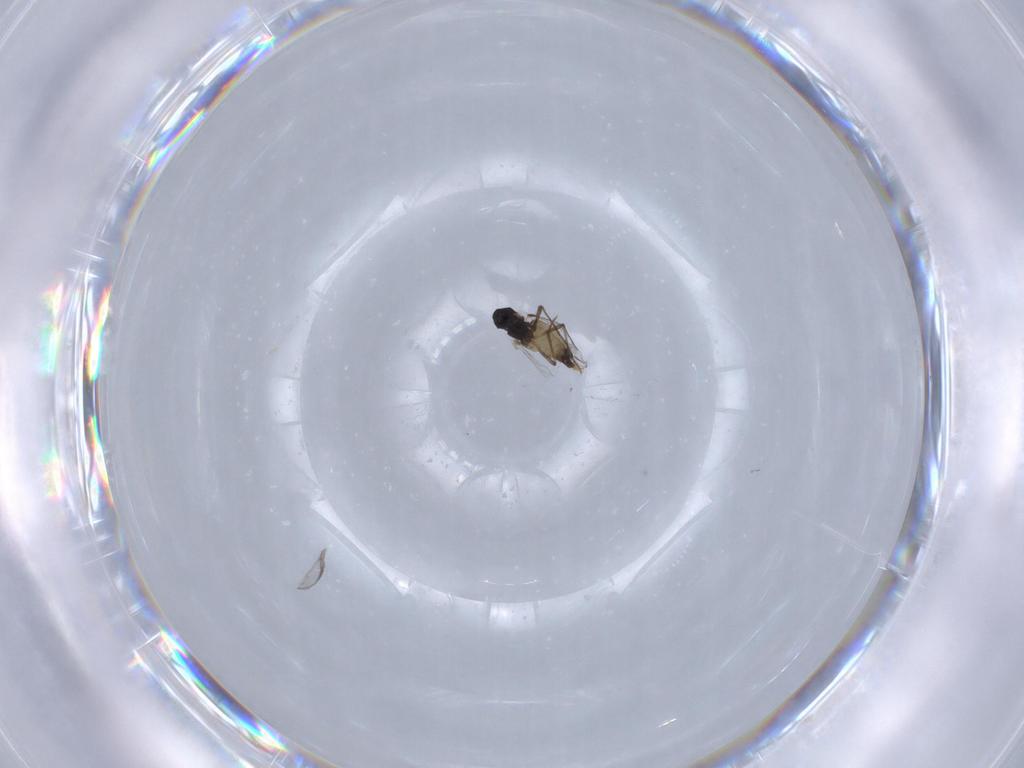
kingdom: Animalia
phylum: Arthropoda
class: Insecta
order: Diptera
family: Chironomidae
